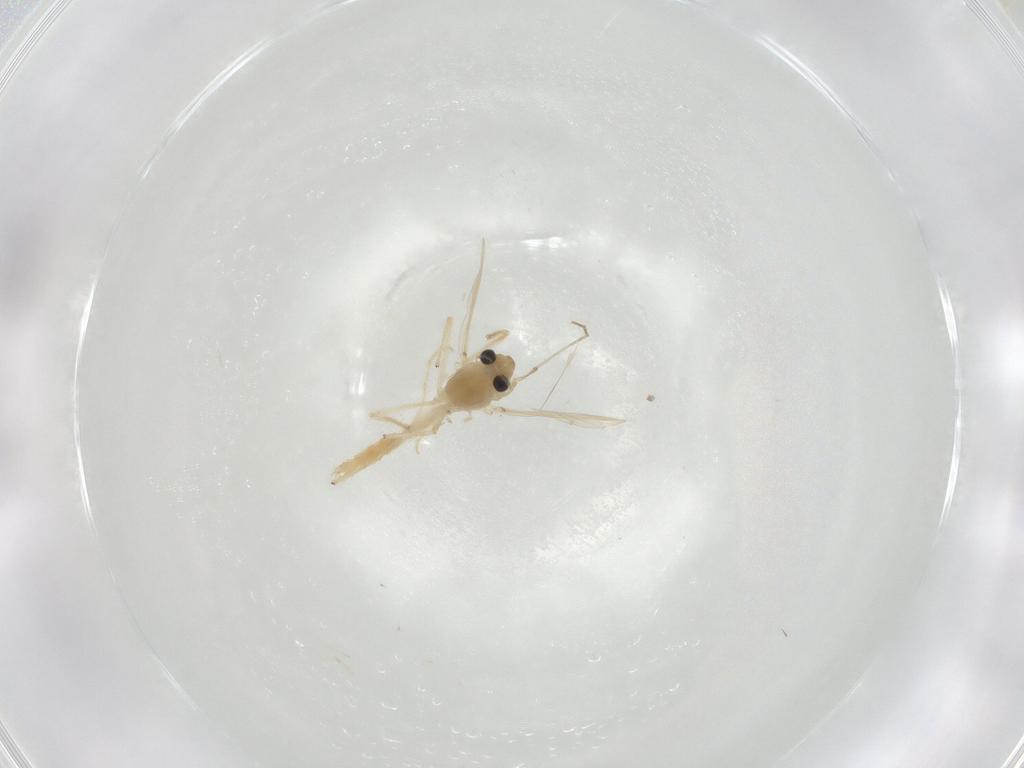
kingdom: Animalia
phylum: Arthropoda
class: Insecta
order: Diptera
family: Chironomidae
